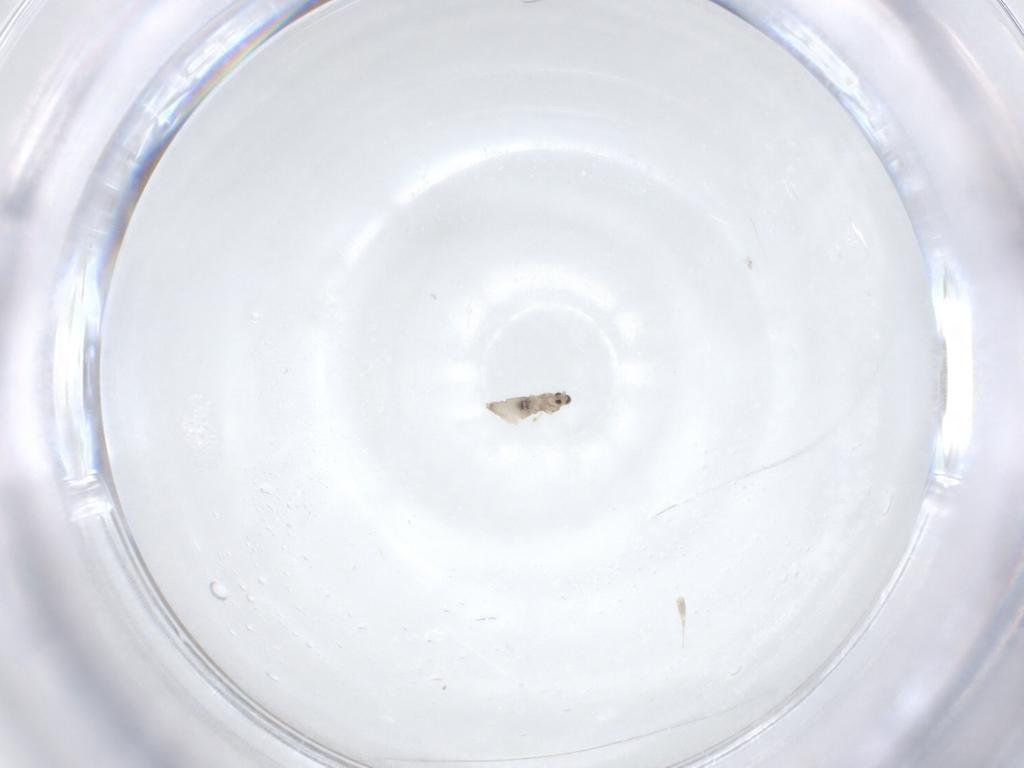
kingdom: Animalia
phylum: Arthropoda
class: Insecta
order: Diptera
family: Cecidomyiidae
